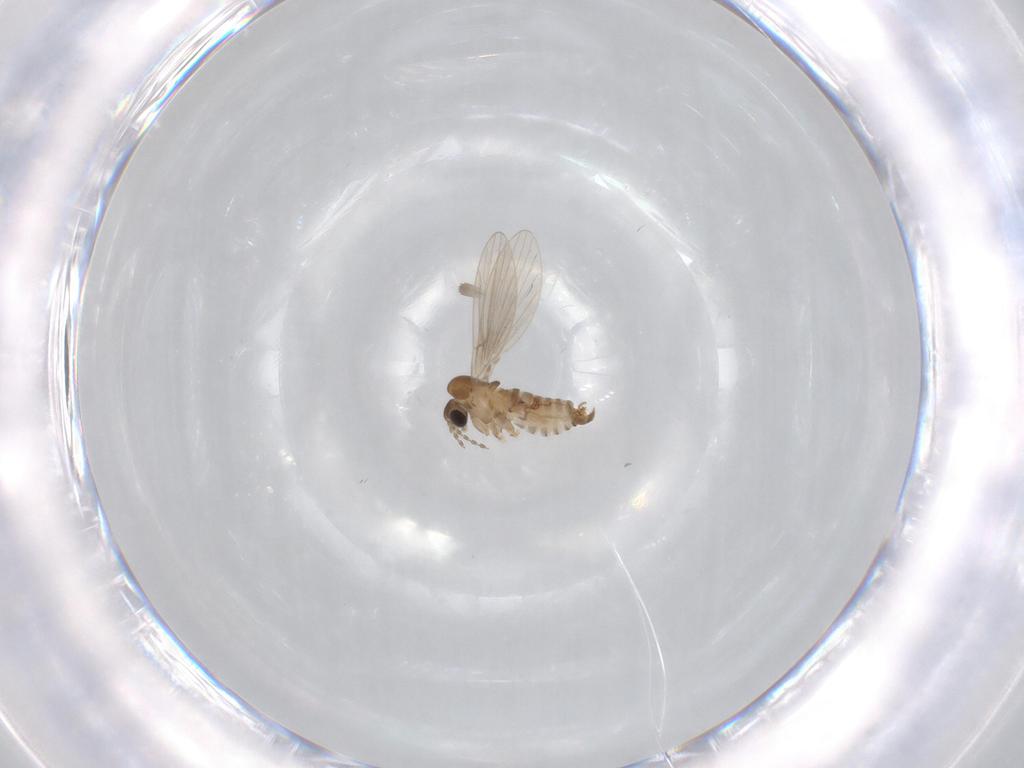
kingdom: Animalia
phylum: Arthropoda
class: Insecta
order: Diptera
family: Psychodidae
